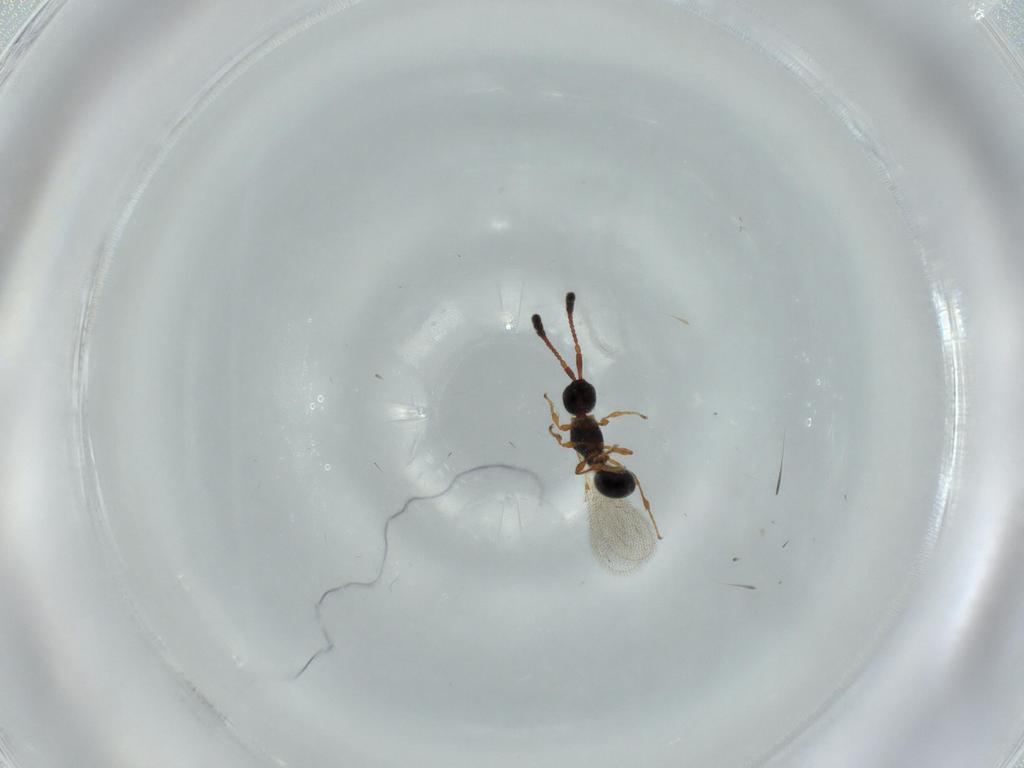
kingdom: Animalia
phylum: Arthropoda
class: Insecta
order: Hymenoptera
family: Diapriidae
